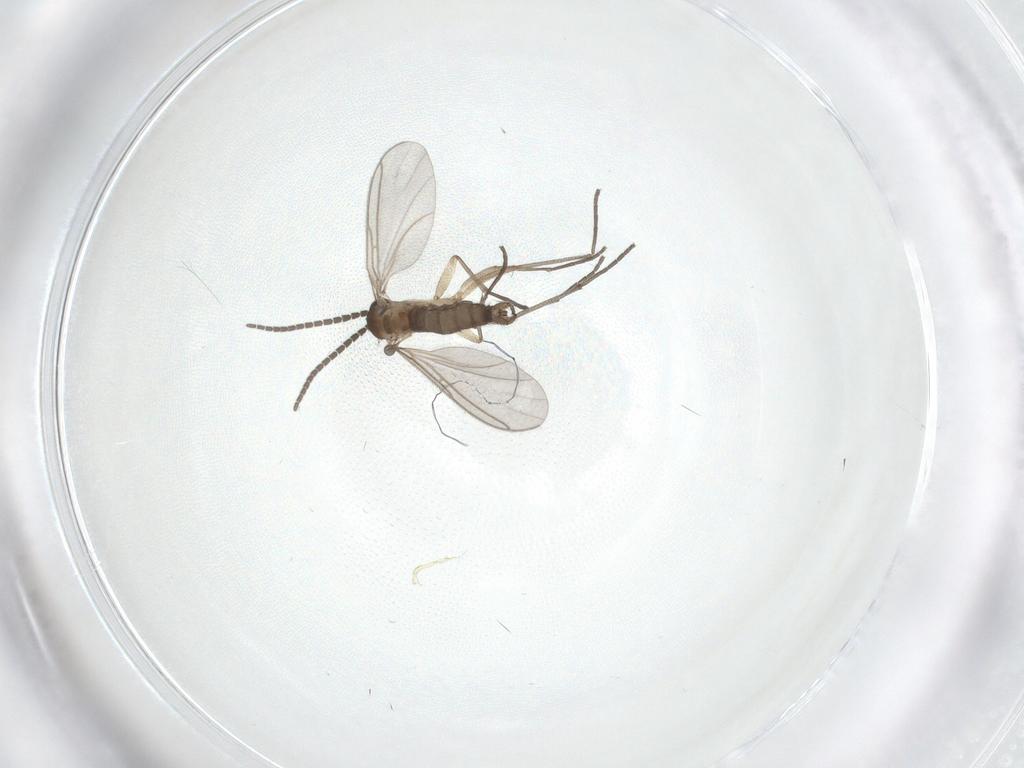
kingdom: Animalia
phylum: Arthropoda
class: Insecta
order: Diptera
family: Sciaridae
